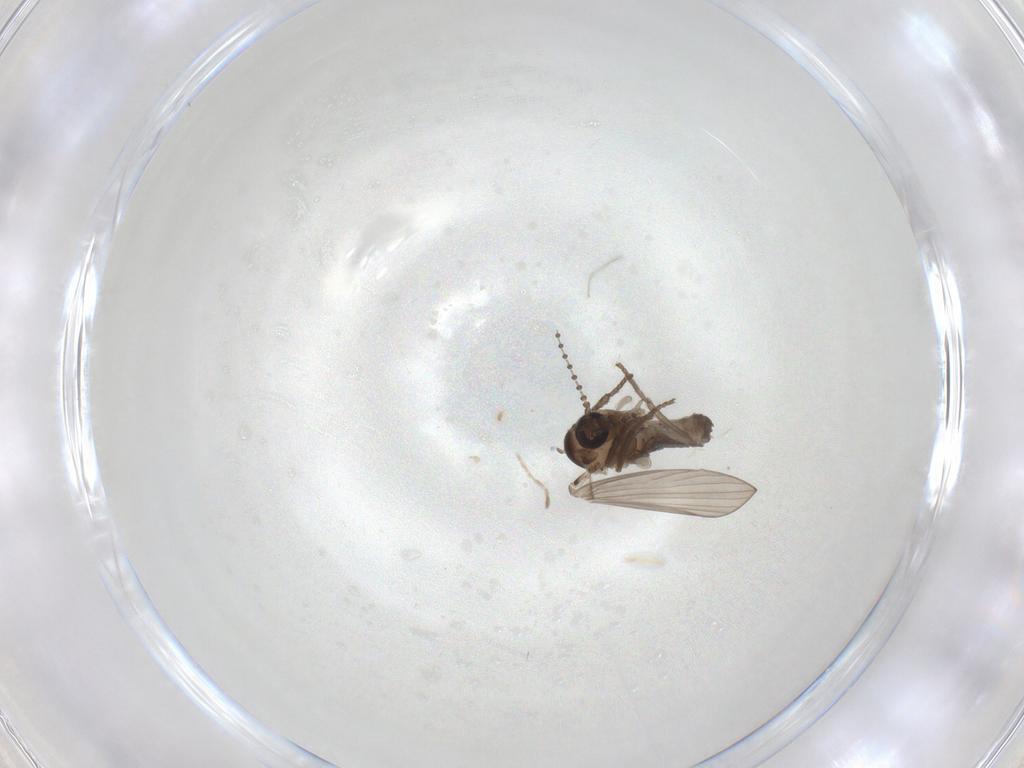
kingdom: Animalia
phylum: Arthropoda
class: Insecta
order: Diptera
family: Psychodidae
